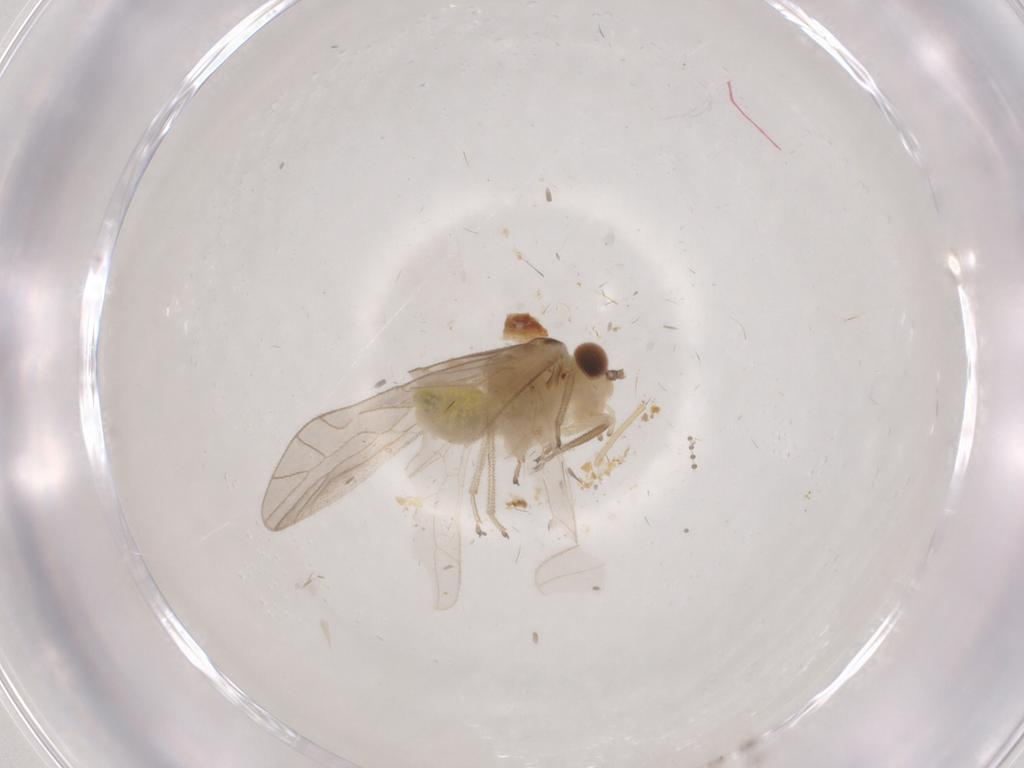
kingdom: Animalia
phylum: Arthropoda
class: Insecta
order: Psocodea
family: Caeciliusidae
